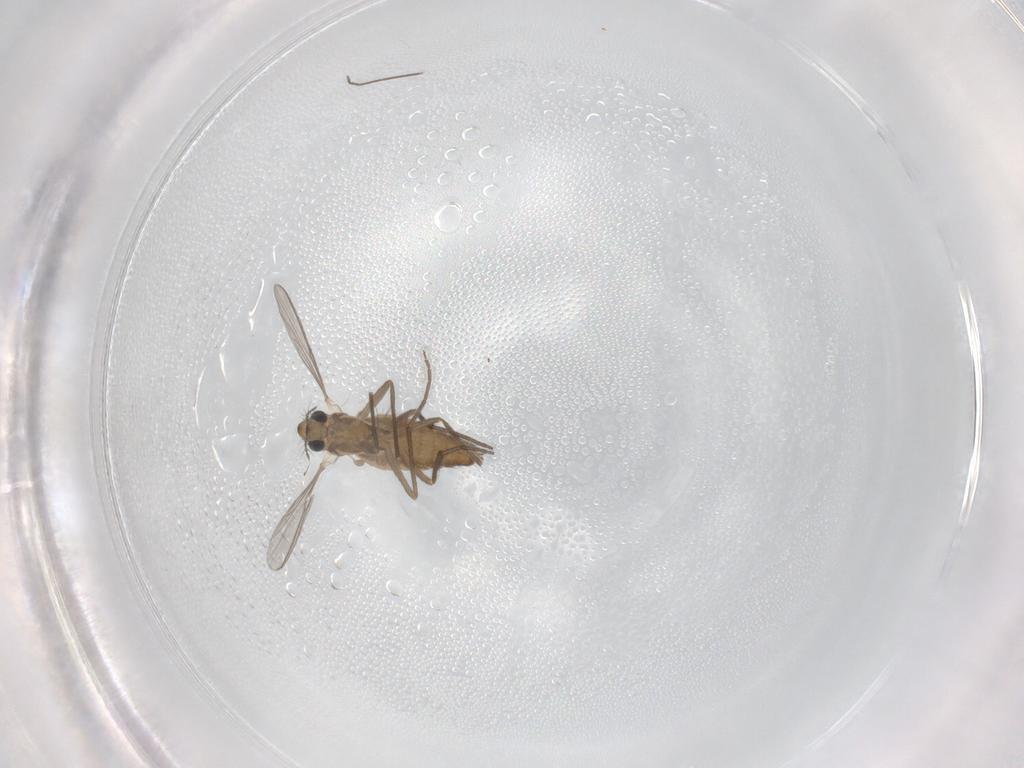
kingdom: Animalia
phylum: Arthropoda
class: Insecta
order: Diptera
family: Chironomidae
